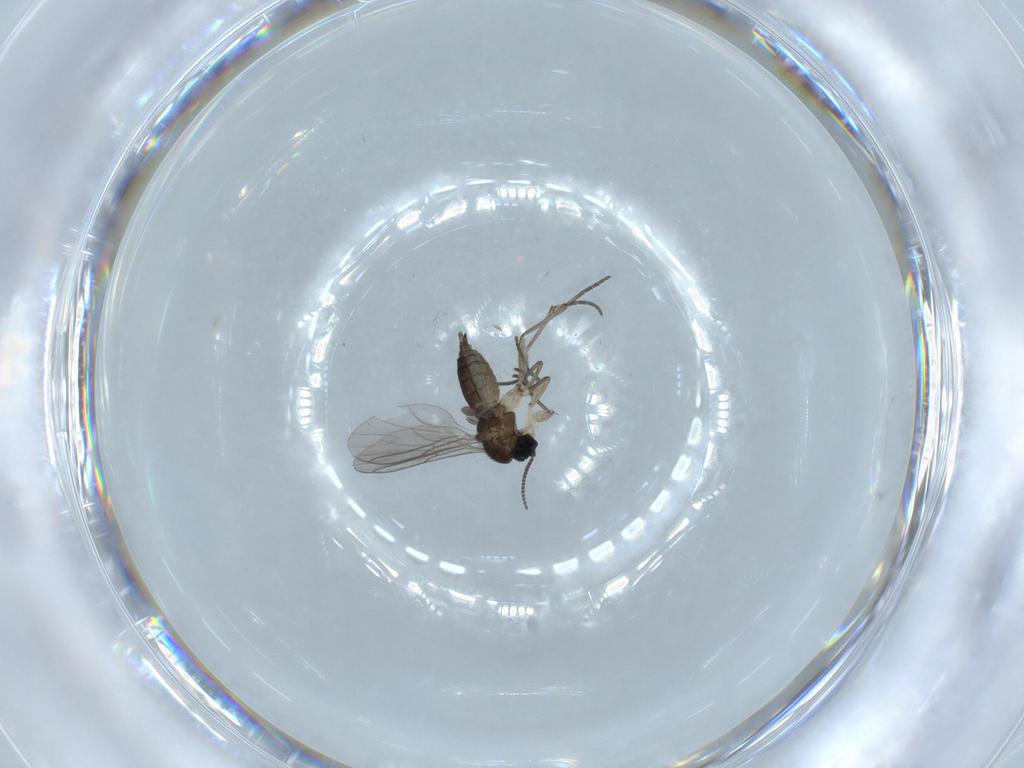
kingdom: Animalia
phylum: Arthropoda
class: Insecta
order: Diptera
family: Sciaridae
